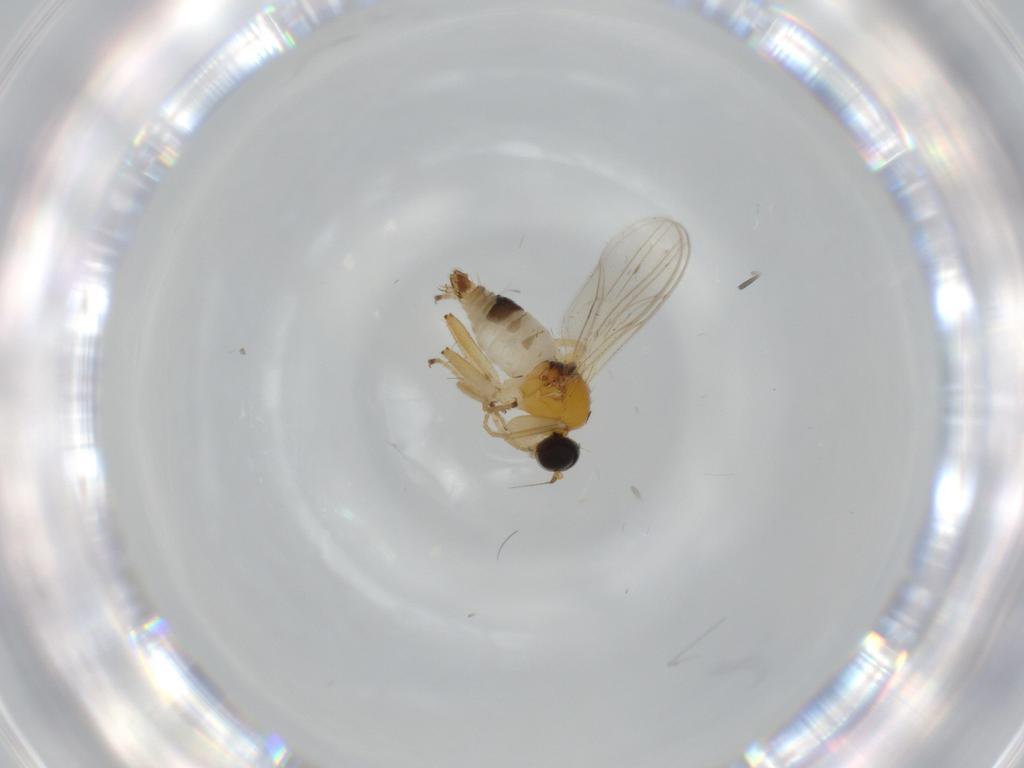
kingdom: Animalia
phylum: Arthropoda
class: Insecta
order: Diptera
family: Hybotidae
